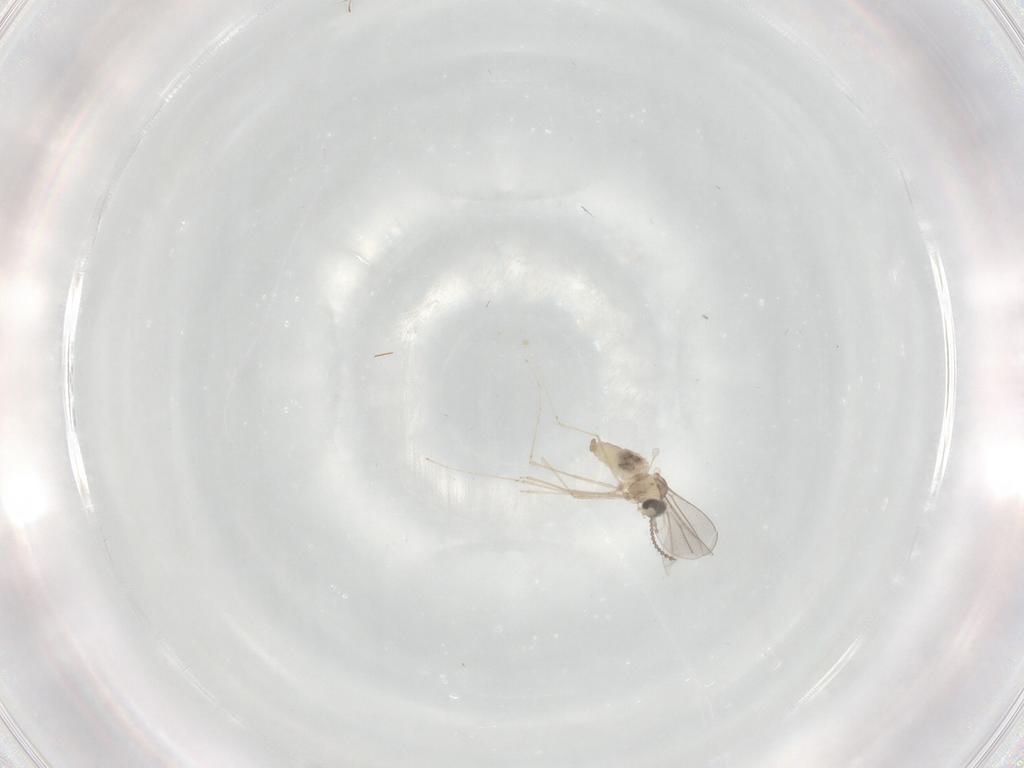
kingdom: Animalia
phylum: Arthropoda
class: Insecta
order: Diptera
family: Cecidomyiidae
